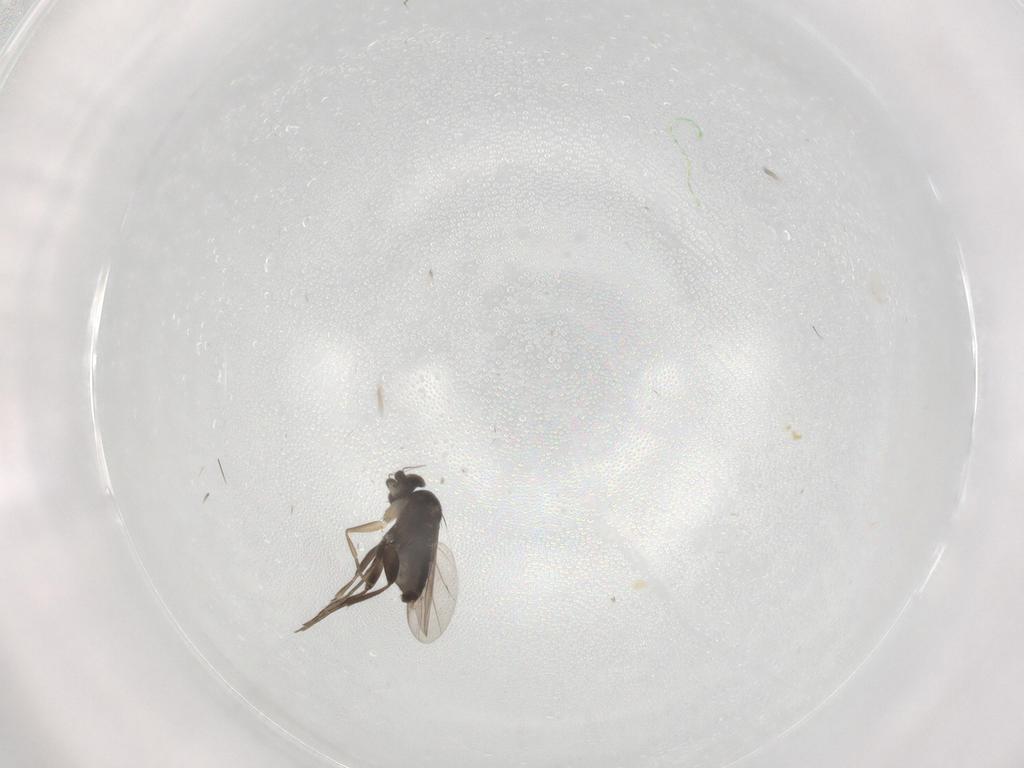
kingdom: Animalia
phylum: Arthropoda
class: Insecta
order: Diptera
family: Phoridae
